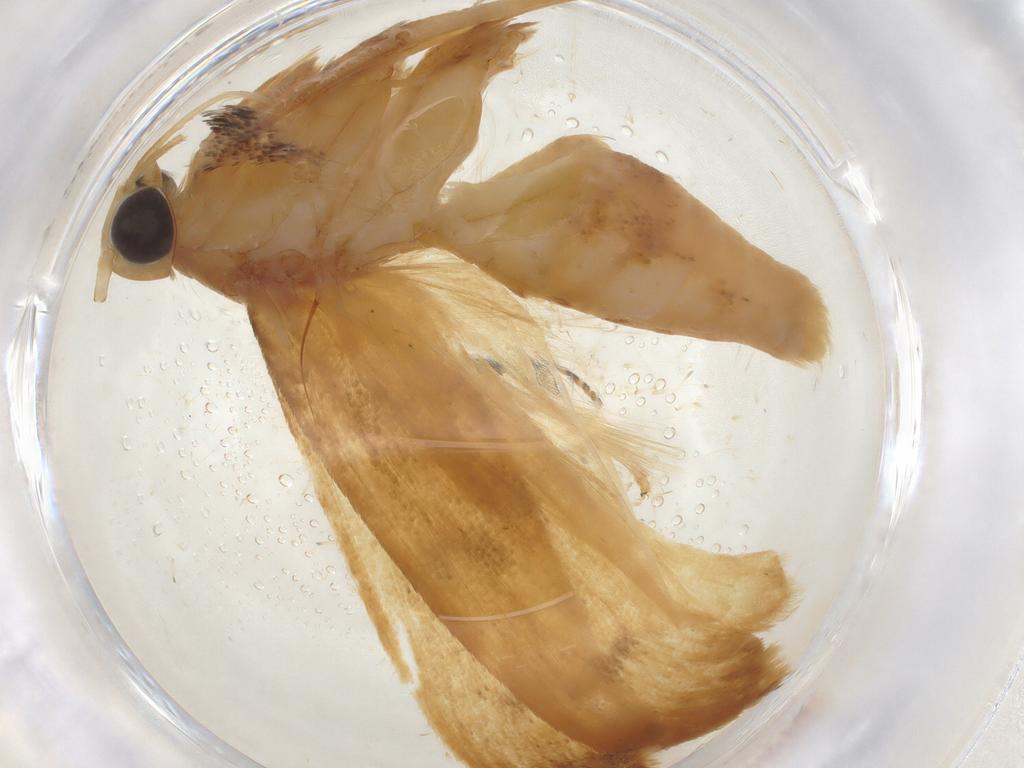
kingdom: Animalia
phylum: Arthropoda
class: Insecta
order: Lepidoptera
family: Autostichidae
